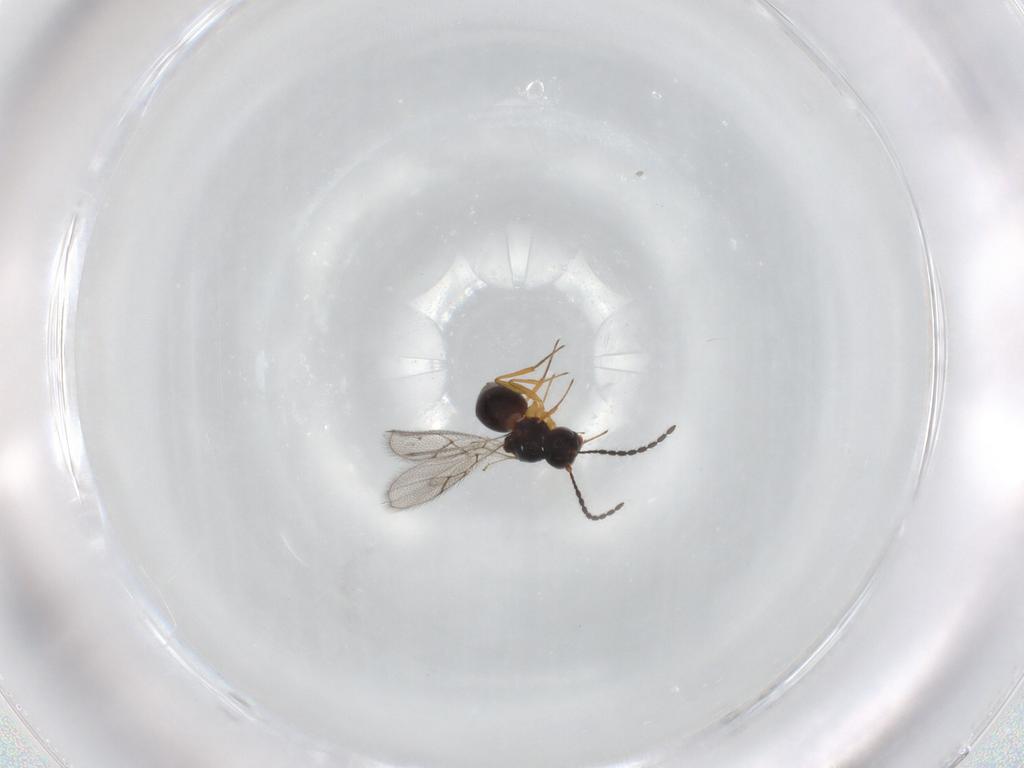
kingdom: Animalia
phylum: Arthropoda
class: Insecta
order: Hymenoptera
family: Figitidae
